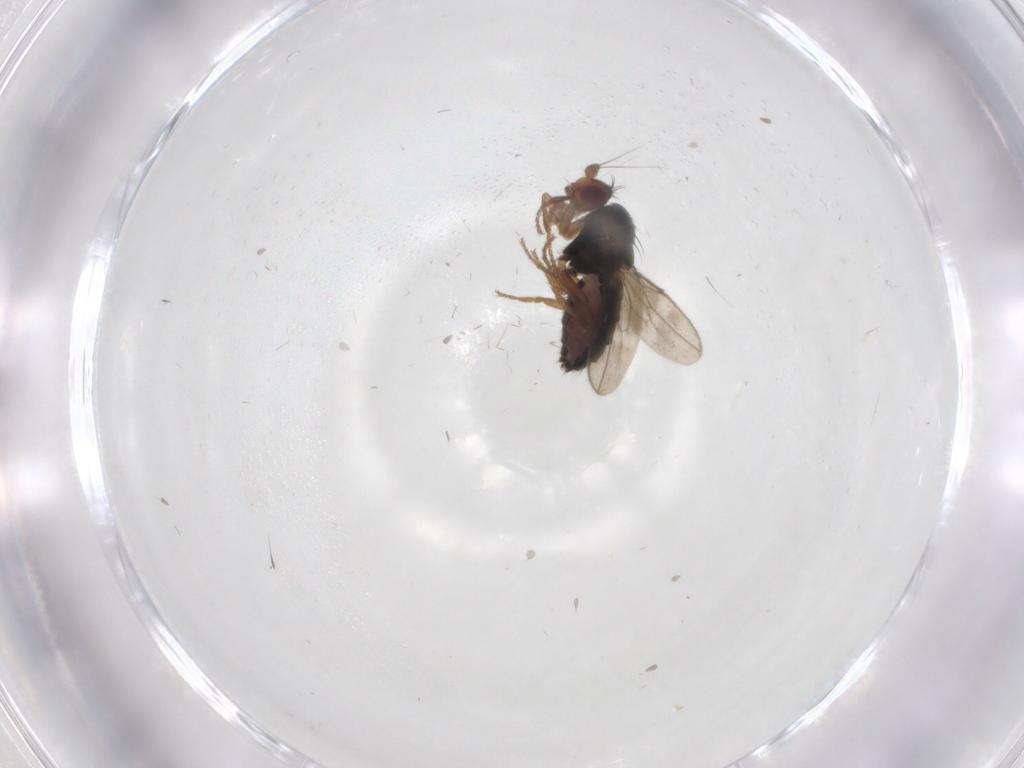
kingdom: Animalia
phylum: Arthropoda
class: Insecta
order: Diptera
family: Sphaeroceridae
